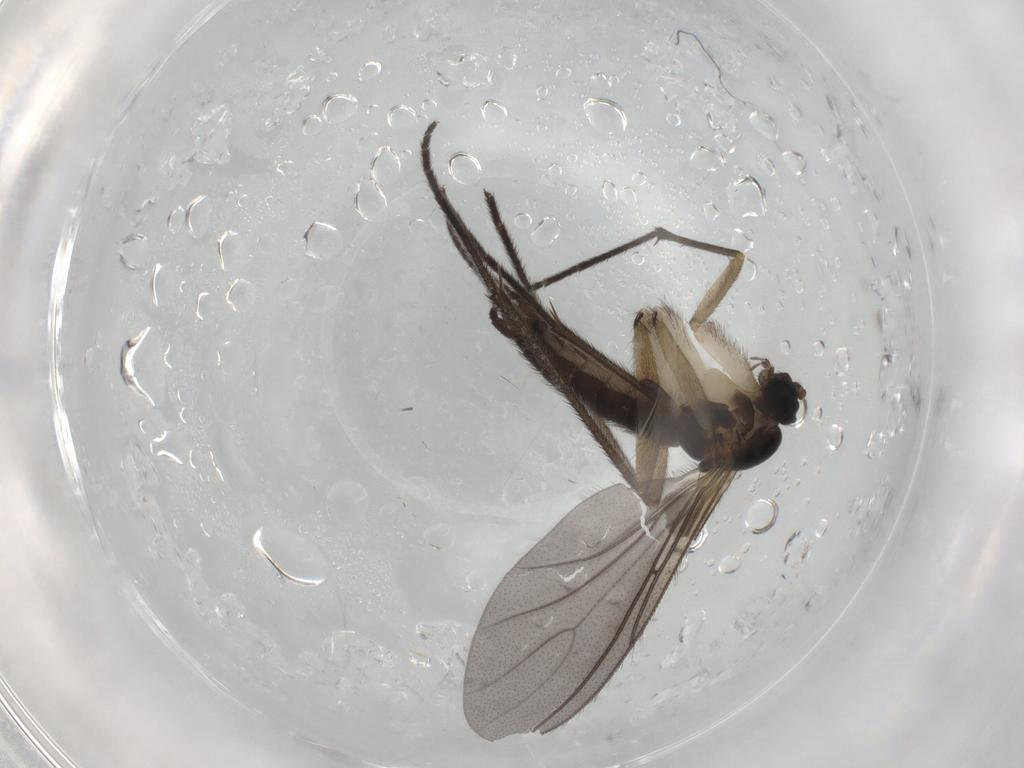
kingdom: Animalia
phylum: Arthropoda
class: Insecta
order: Diptera
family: Sciaridae
